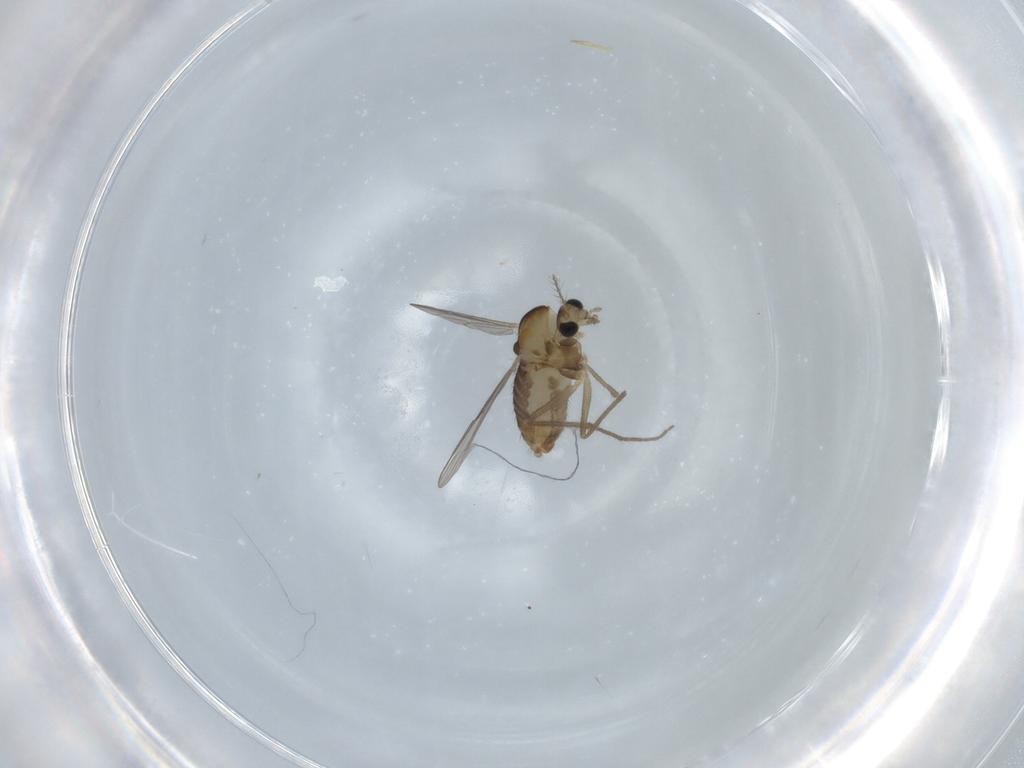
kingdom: Animalia
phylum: Arthropoda
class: Insecta
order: Diptera
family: Chironomidae
